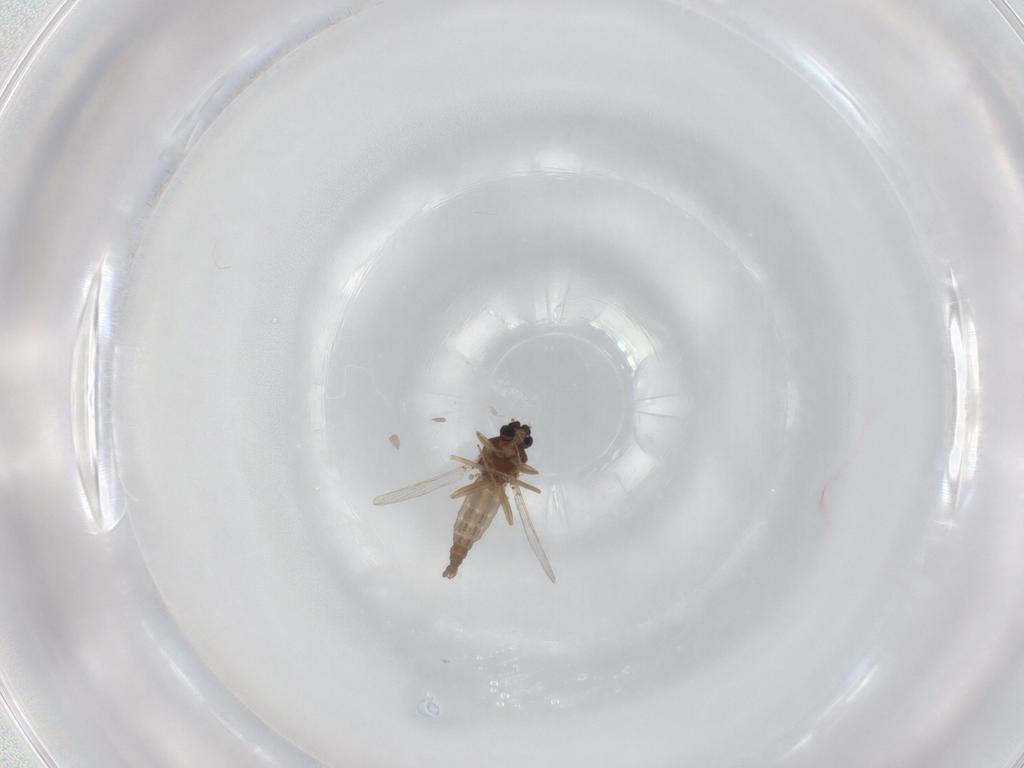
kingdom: Animalia
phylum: Arthropoda
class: Insecta
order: Diptera
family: Ceratopogonidae
